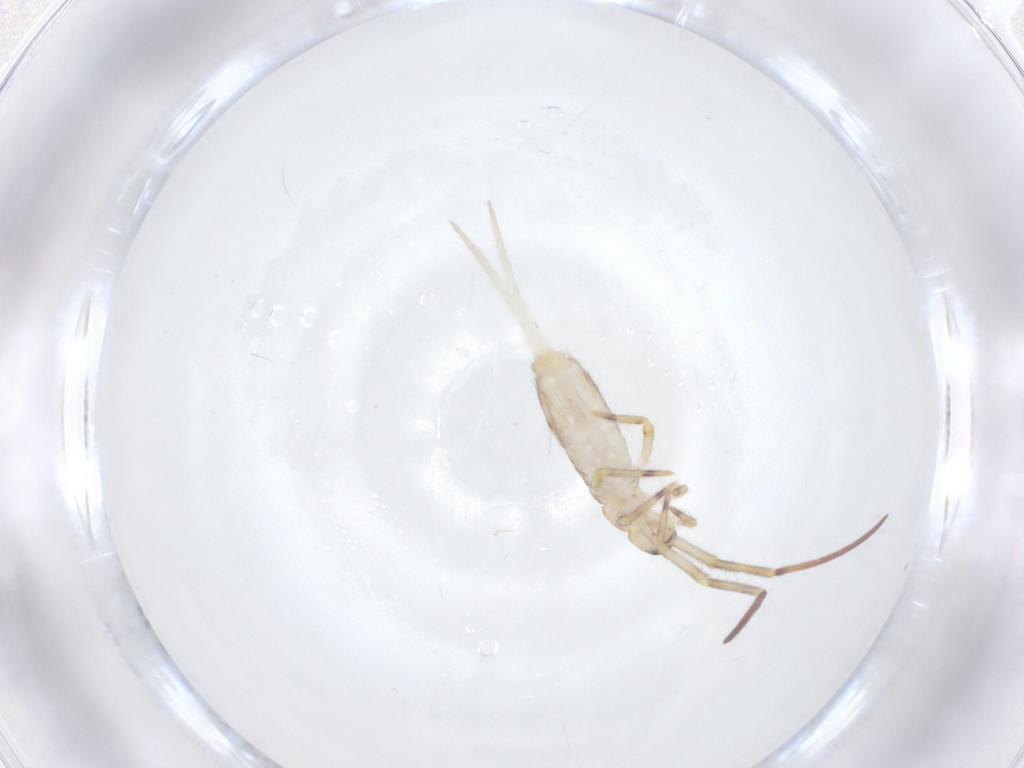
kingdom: Animalia
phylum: Arthropoda
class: Collembola
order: Entomobryomorpha
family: Entomobryidae
